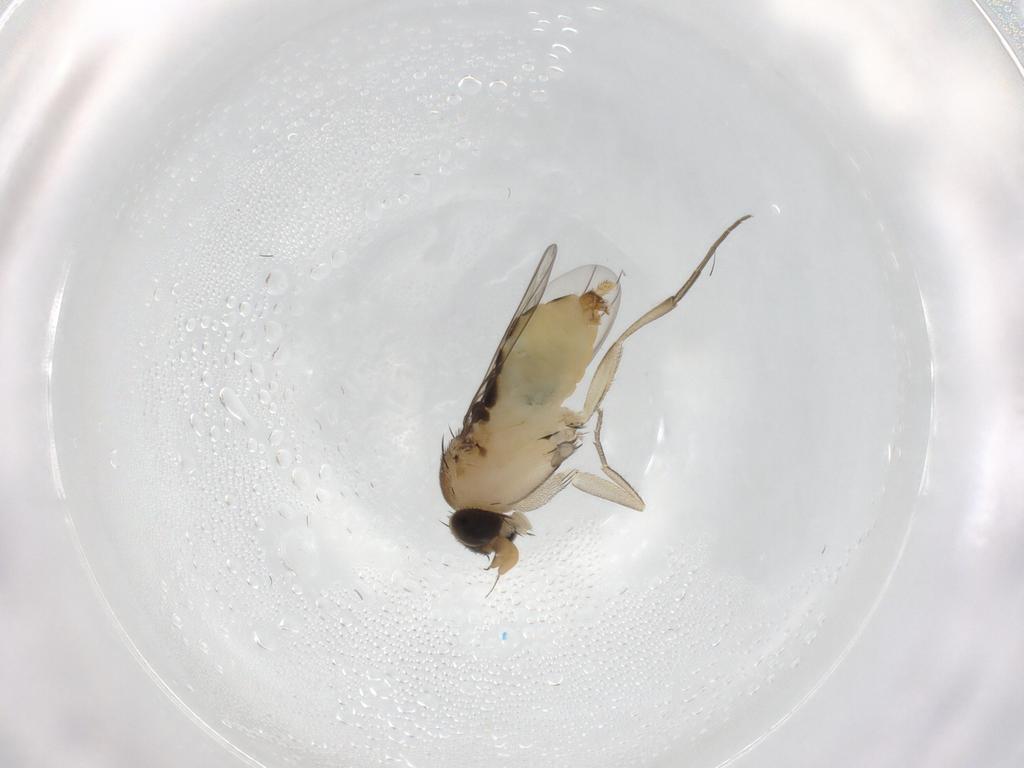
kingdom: Animalia
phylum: Arthropoda
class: Insecta
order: Diptera
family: Phoridae
